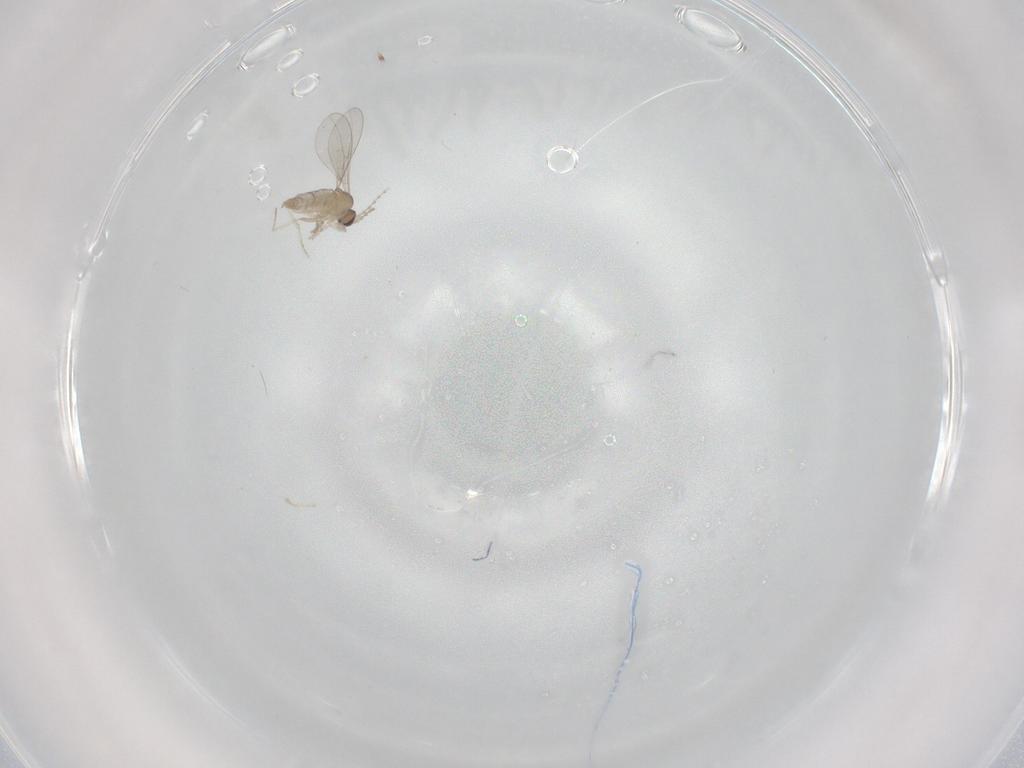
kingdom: Animalia
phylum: Arthropoda
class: Insecta
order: Diptera
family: Cecidomyiidae
